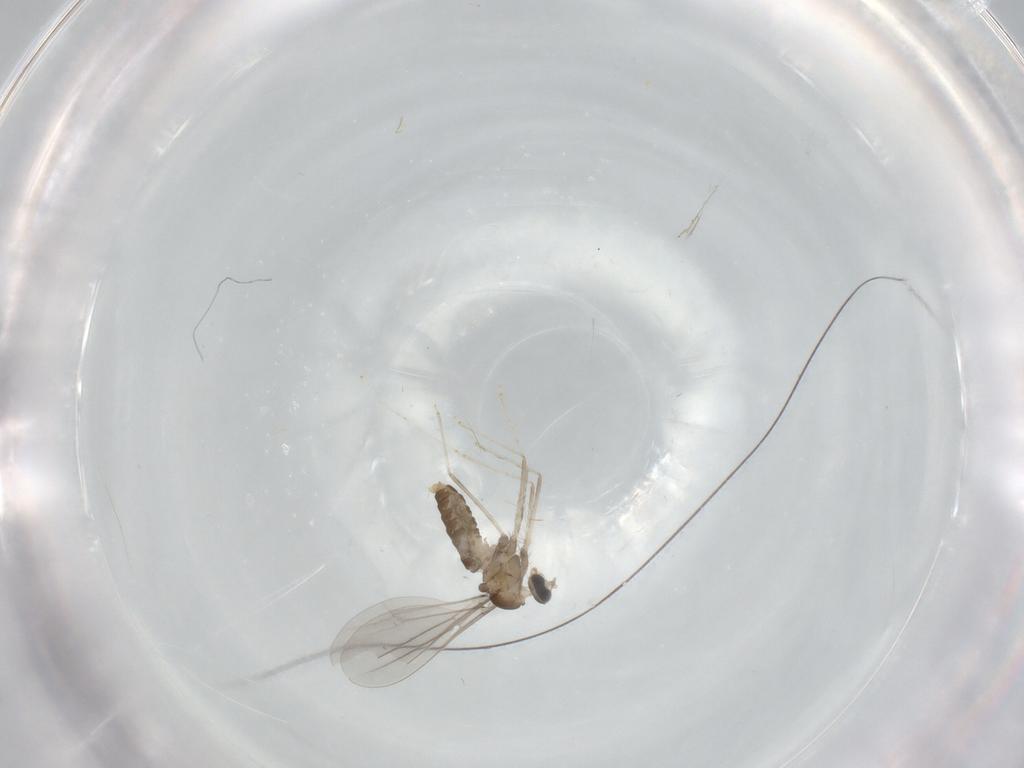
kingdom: Animalia
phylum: Arthropoda
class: Insecta
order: Diptera
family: Cecidomyiidae
